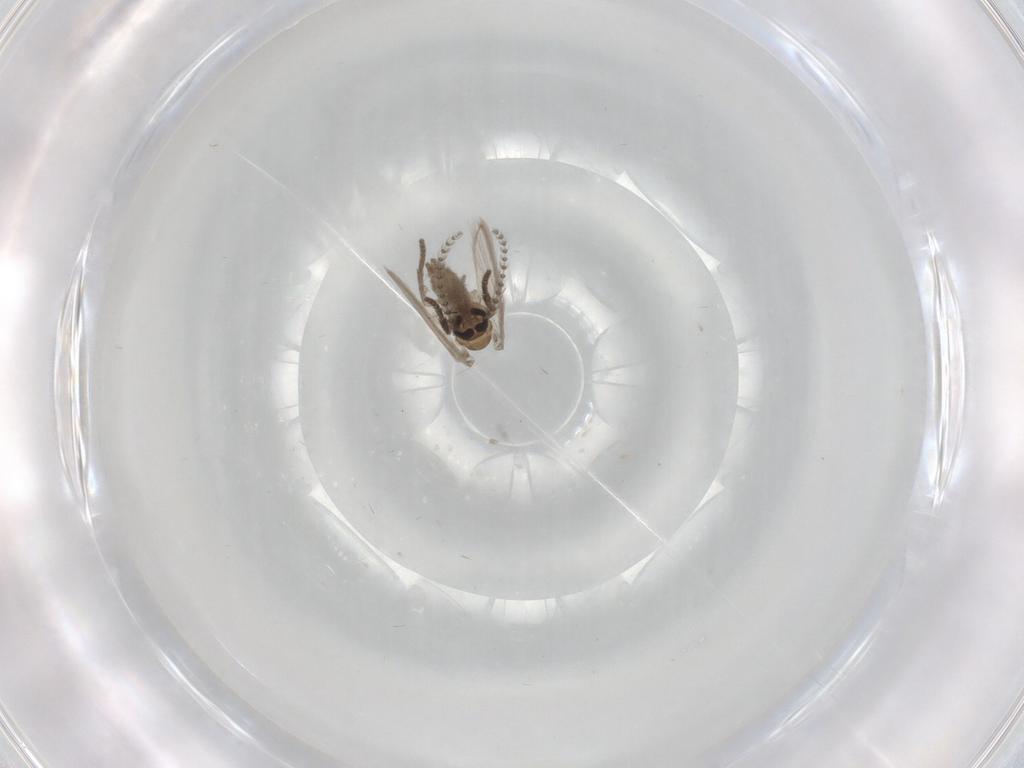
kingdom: Animalia
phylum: Arthropoda
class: Insecta
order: Diptera
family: Psychodidae
